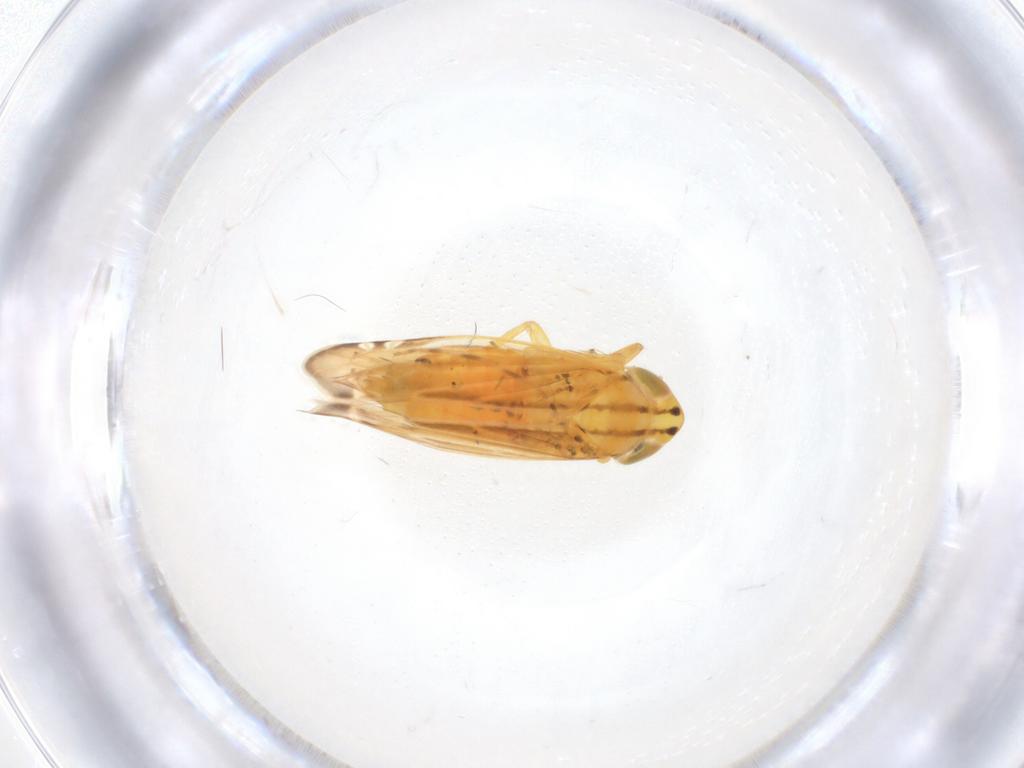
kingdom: Animalia
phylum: Arthropoda
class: Insecta
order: Hemiptera
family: Cicadellidae
